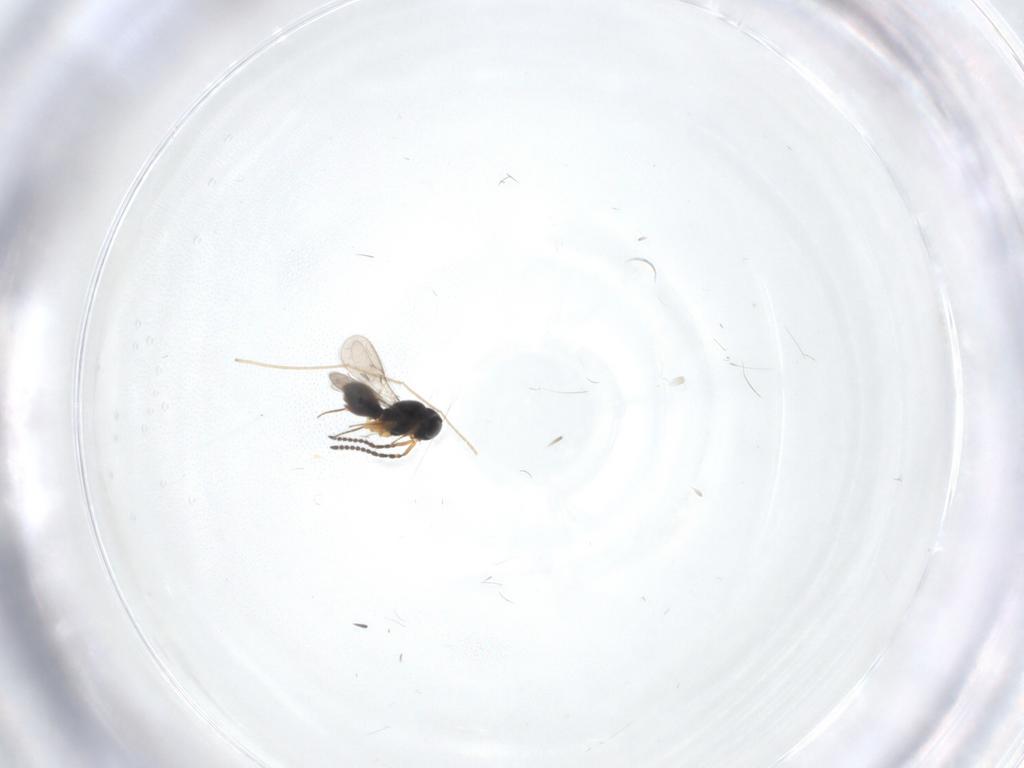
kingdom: Animalia
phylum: Arthropoda
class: Insecta
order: Hymenoptera
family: Scelionidae
